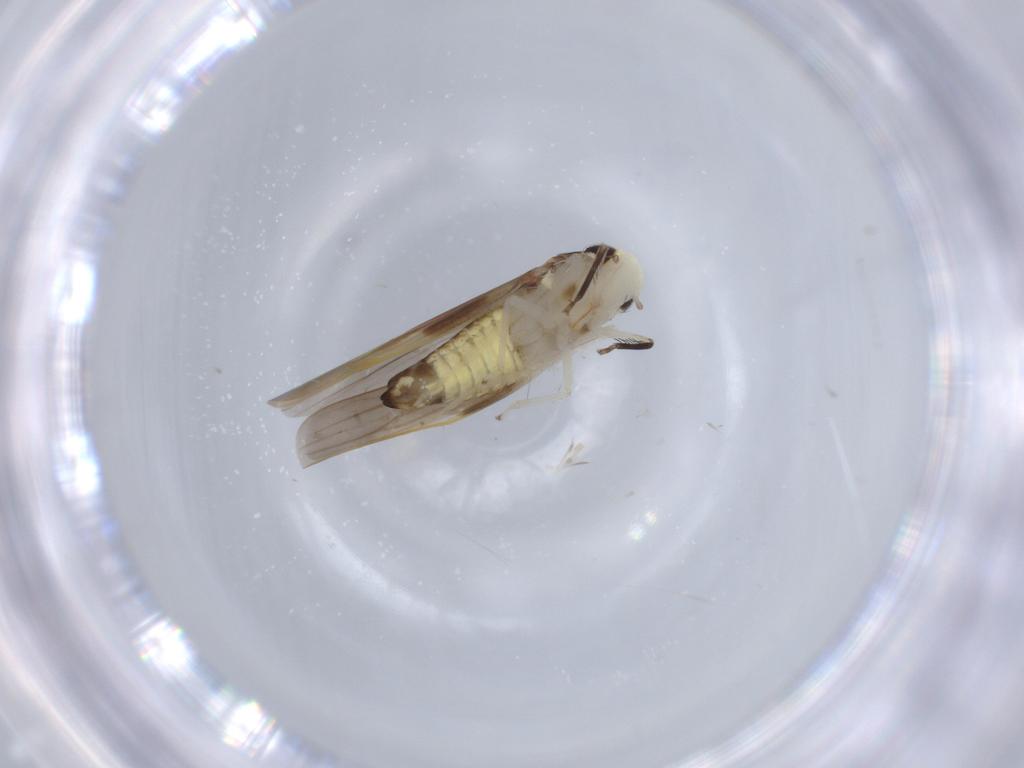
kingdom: Animalia
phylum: Arthropoda
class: Insecta
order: Hemiptera
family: Cicadellidae
